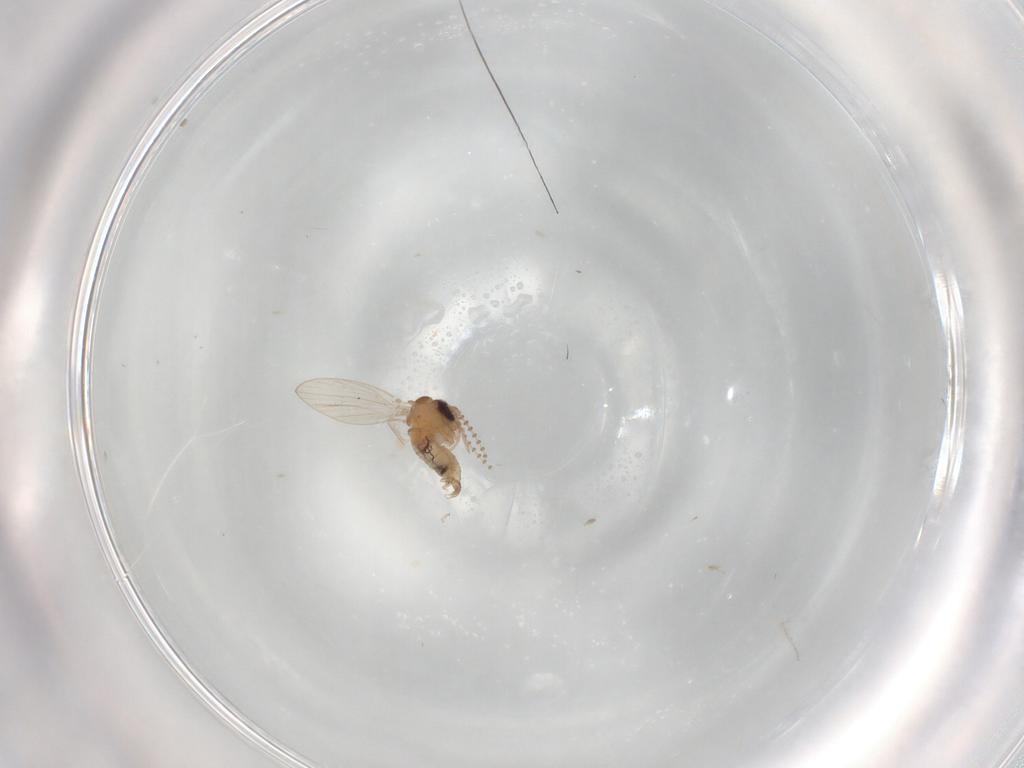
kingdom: Animalia
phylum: Arthropoda
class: Insecta
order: Diptera
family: Psychodidae
